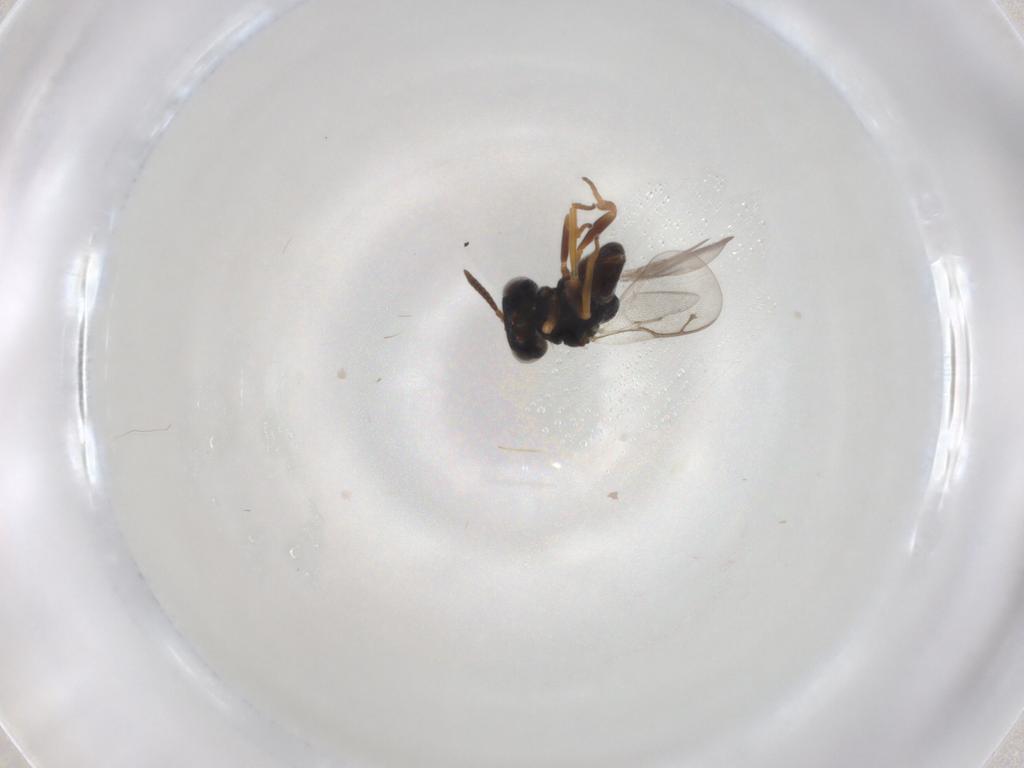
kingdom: Animalia
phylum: Arthropoda
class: Insecta
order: Hymenoptera
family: Pteromalidae
